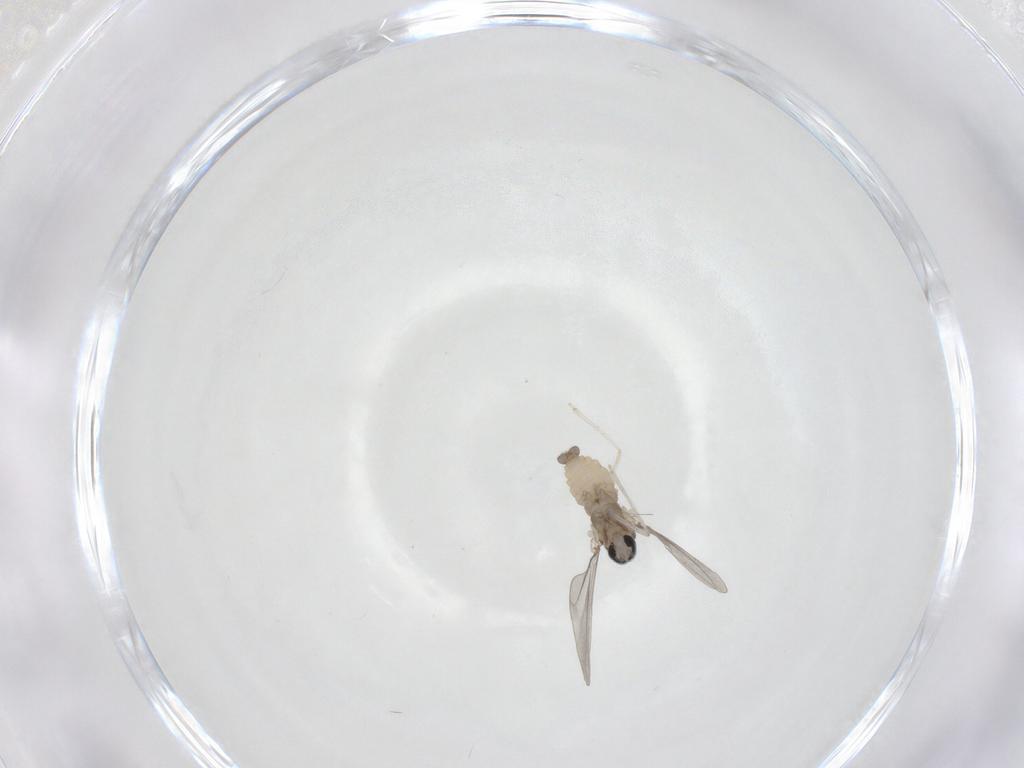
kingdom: Animalia
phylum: Arthropoda
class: Insecta
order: Diptera
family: Cecidomyiidae
